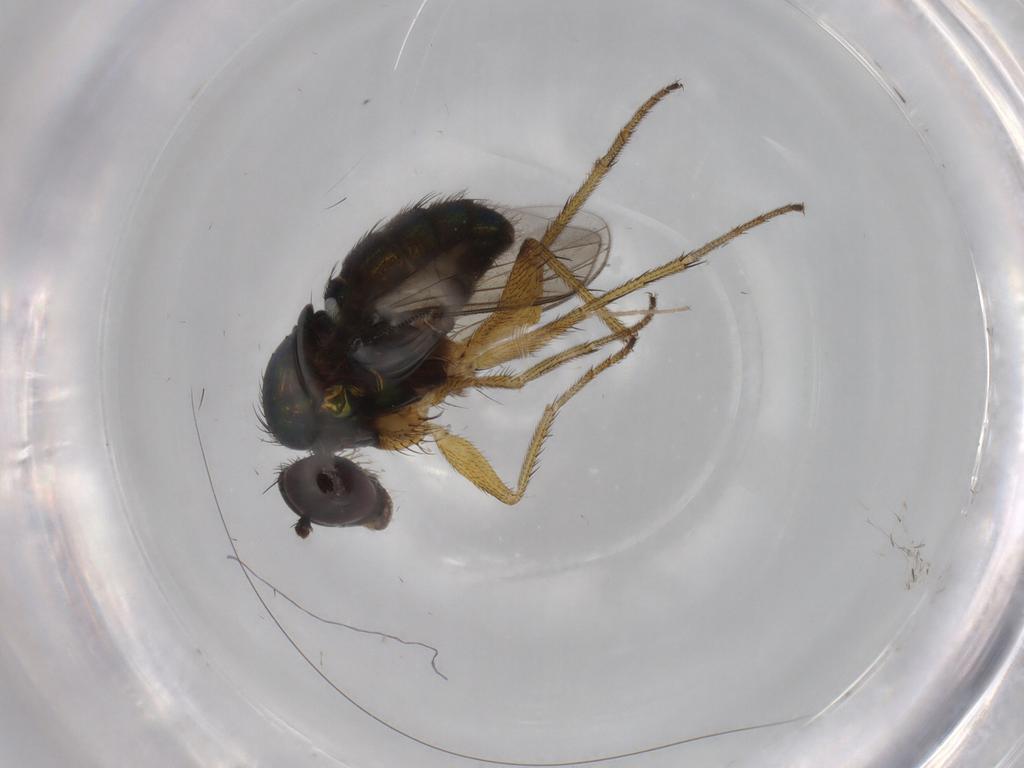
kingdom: Animalia
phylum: Arthropoda
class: Insecta
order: Diptera
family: Dolichopodidae
